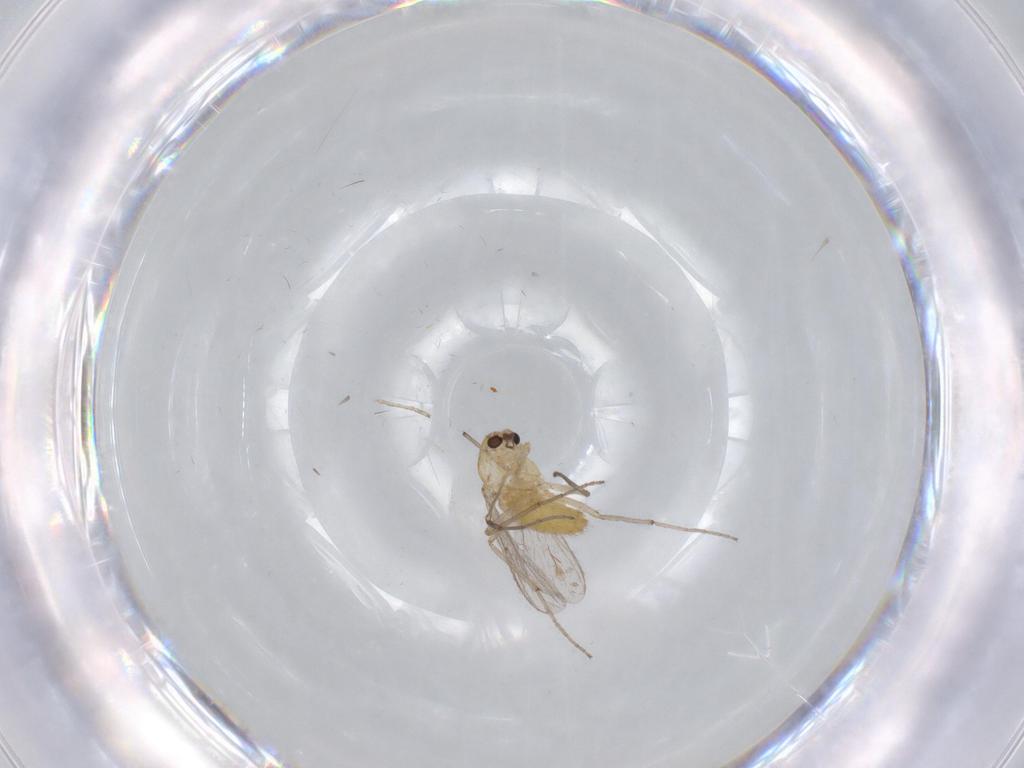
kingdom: Animalia
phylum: Arthropoda
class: Insecta
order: Diptera
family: Chironomidae
